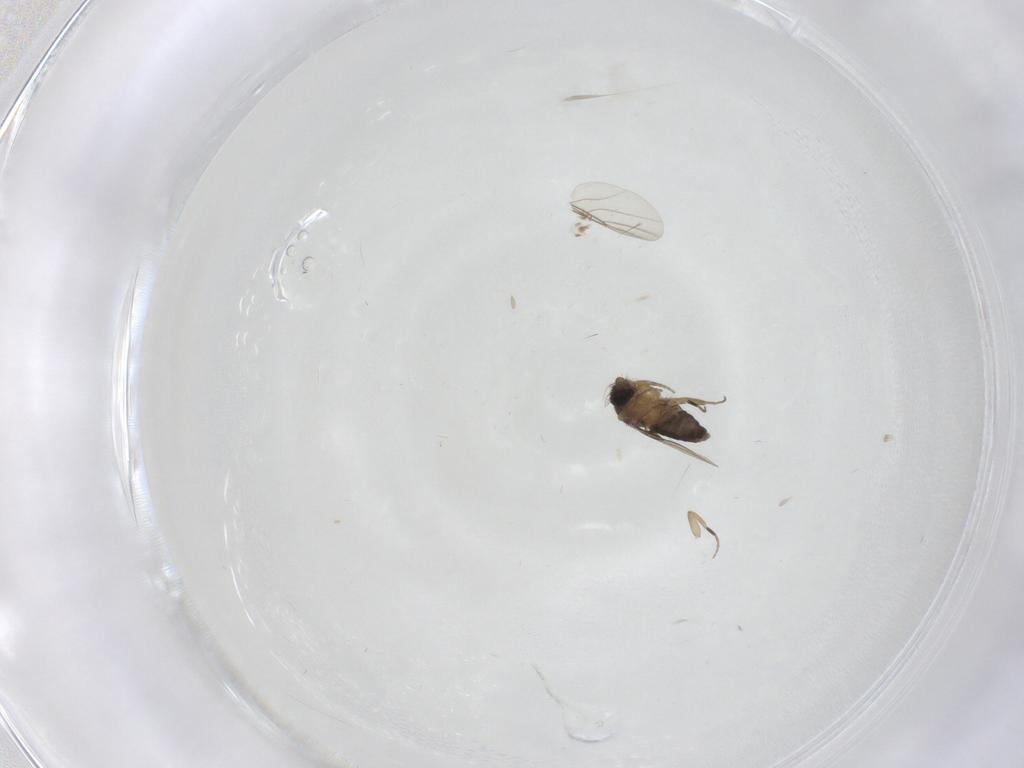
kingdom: Animalia
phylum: Arthropoda
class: Insecta
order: Diptera
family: Phoridae
